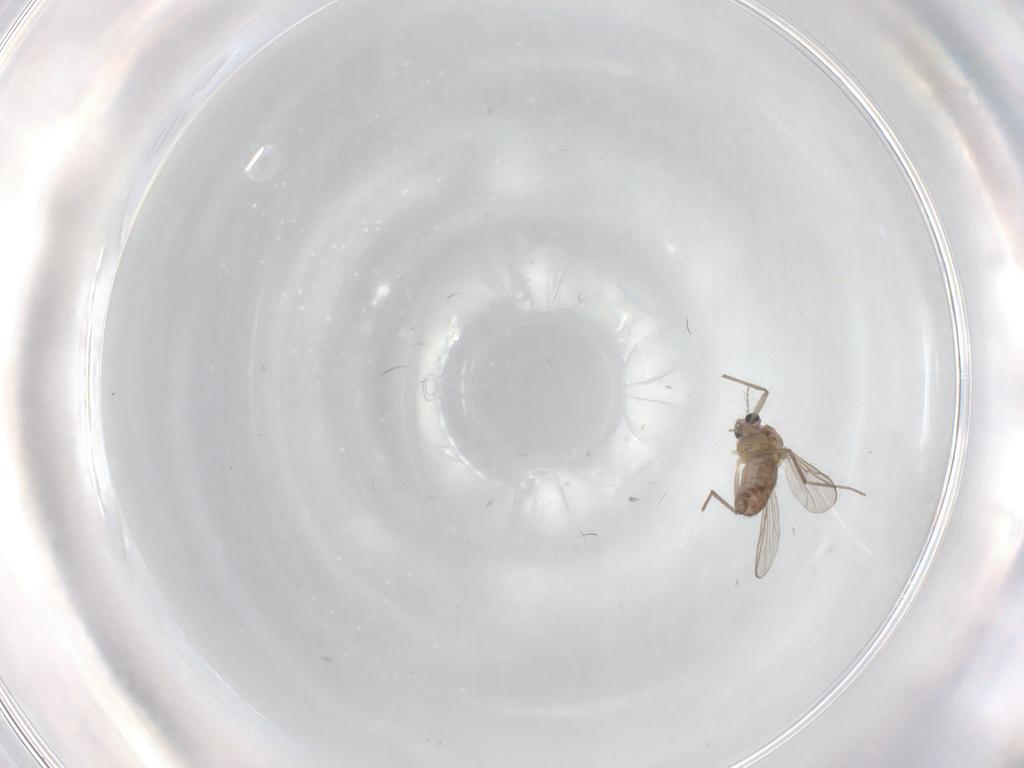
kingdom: Animalia
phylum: Arthropoda
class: Insecta
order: Diptera
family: Chironomidae
